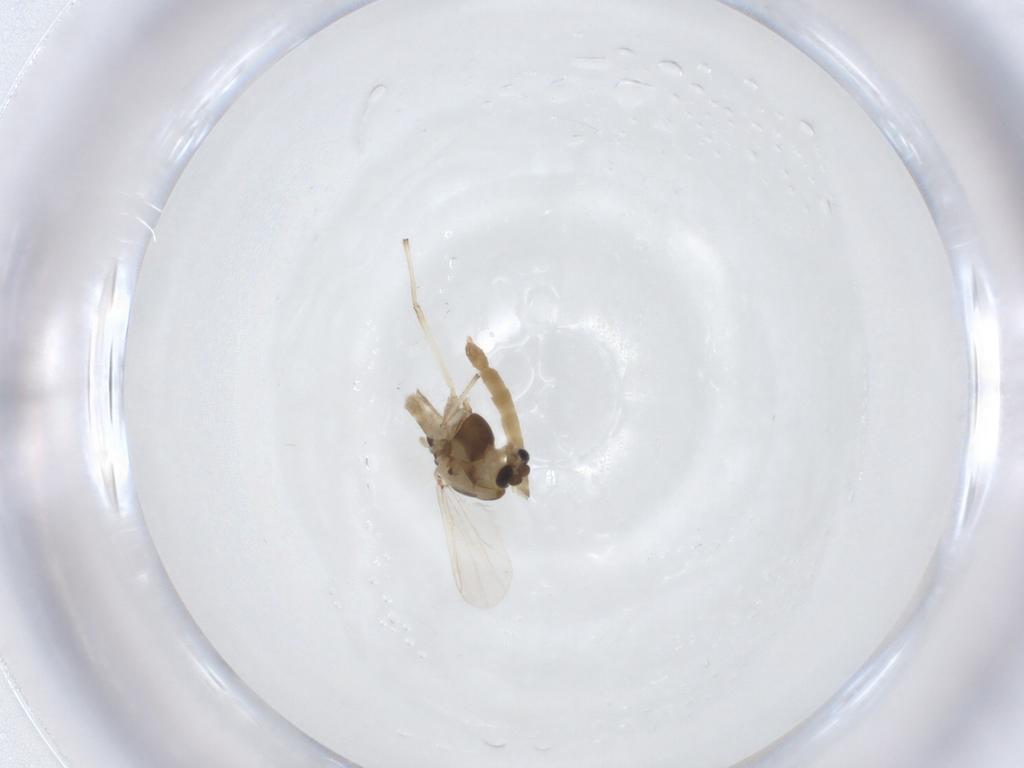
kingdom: Animalia
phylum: Arthropoda
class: Insecta
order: Diptera
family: Chironomidae
